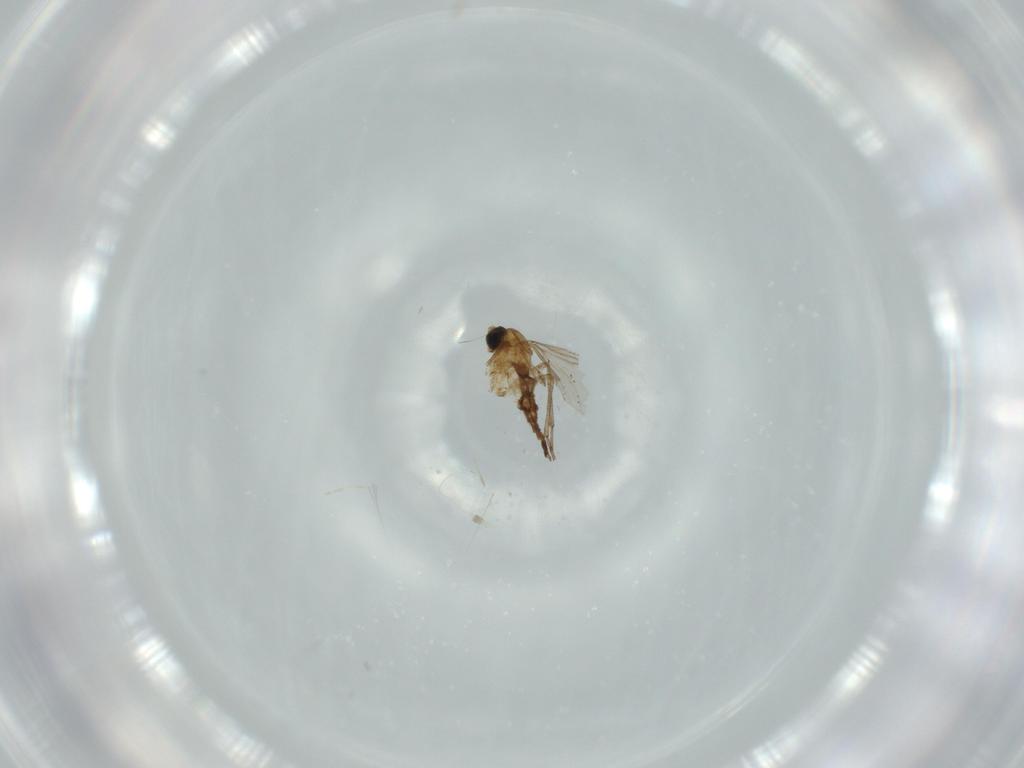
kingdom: Animalia
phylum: Arthropoda
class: Insecta
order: Diptera
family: Sciaridae
